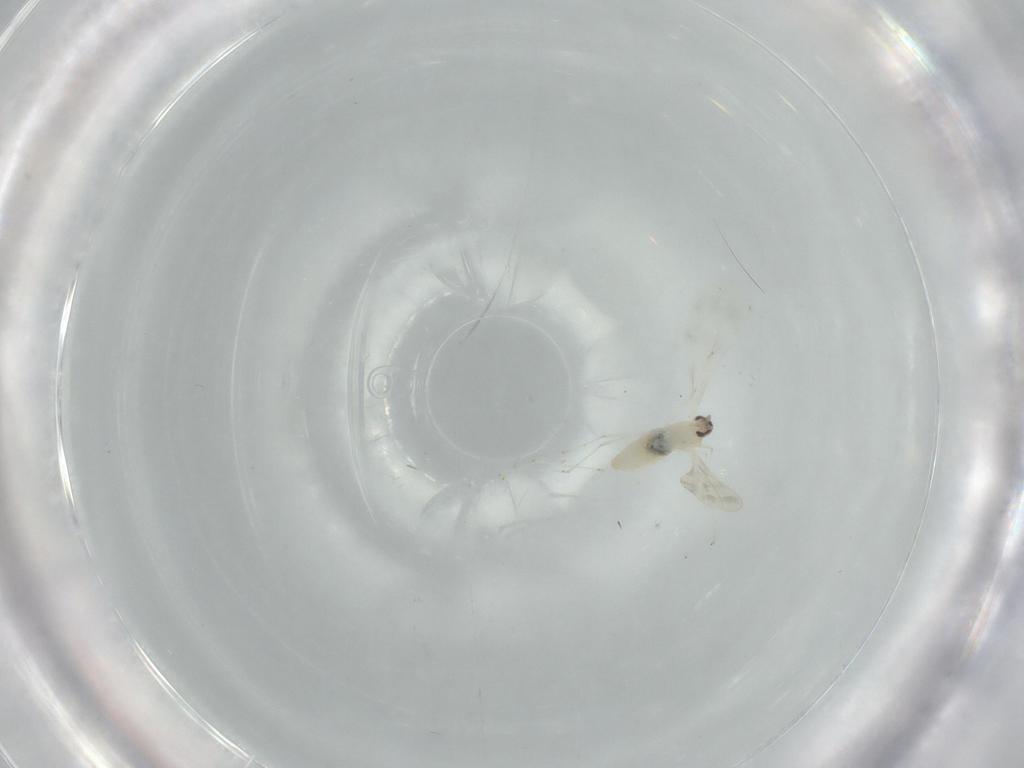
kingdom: Animalia
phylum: Arthropoda
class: Insecta
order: Diptera
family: Cecidomyiidae
